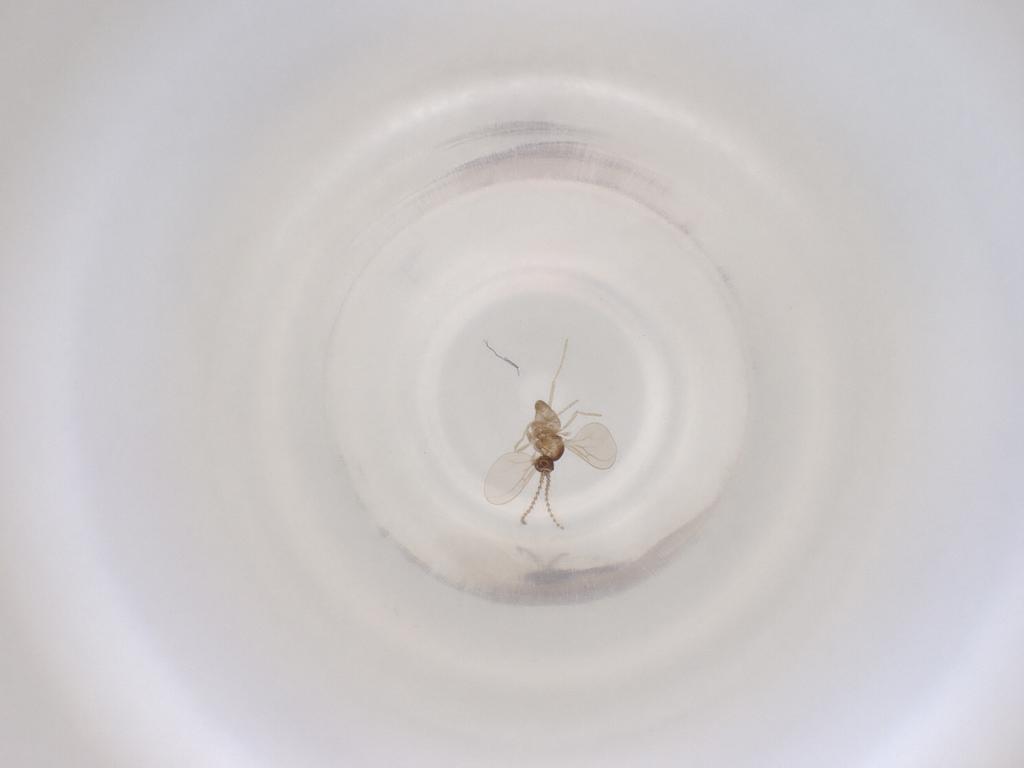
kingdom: Animalia
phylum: Arthropoda
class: Insecta
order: Diptera
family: Cecidomyiidae
